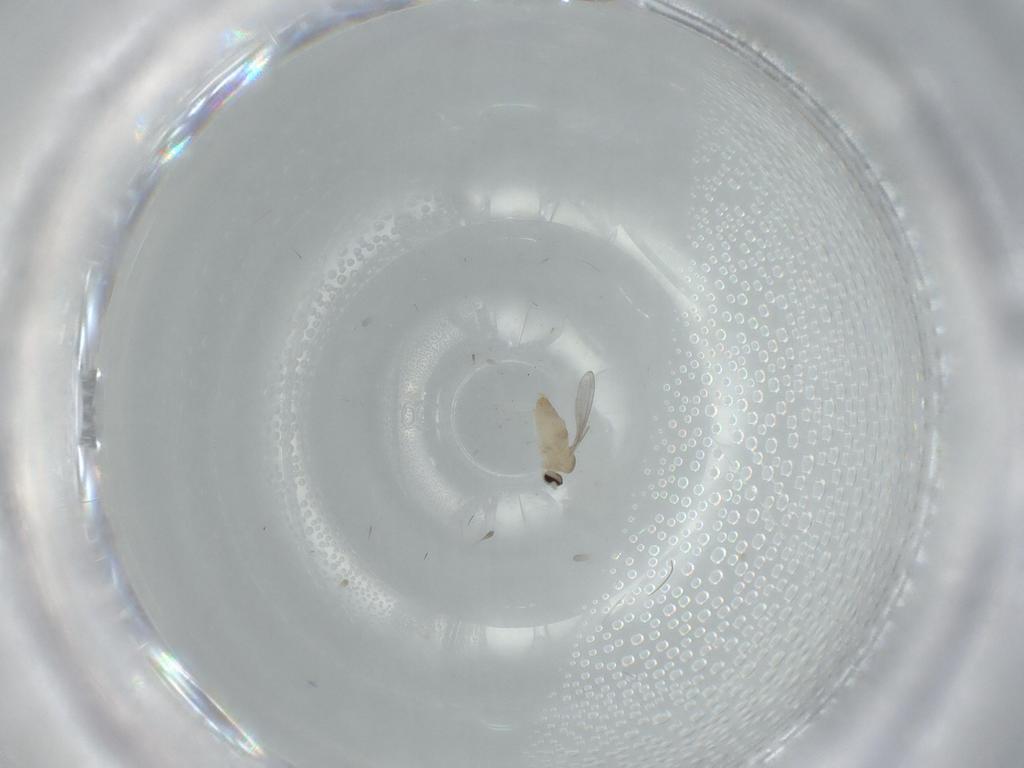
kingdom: Animalia
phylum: Arthropoda
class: Insecta
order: Diptera
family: Cecidomyiidae
